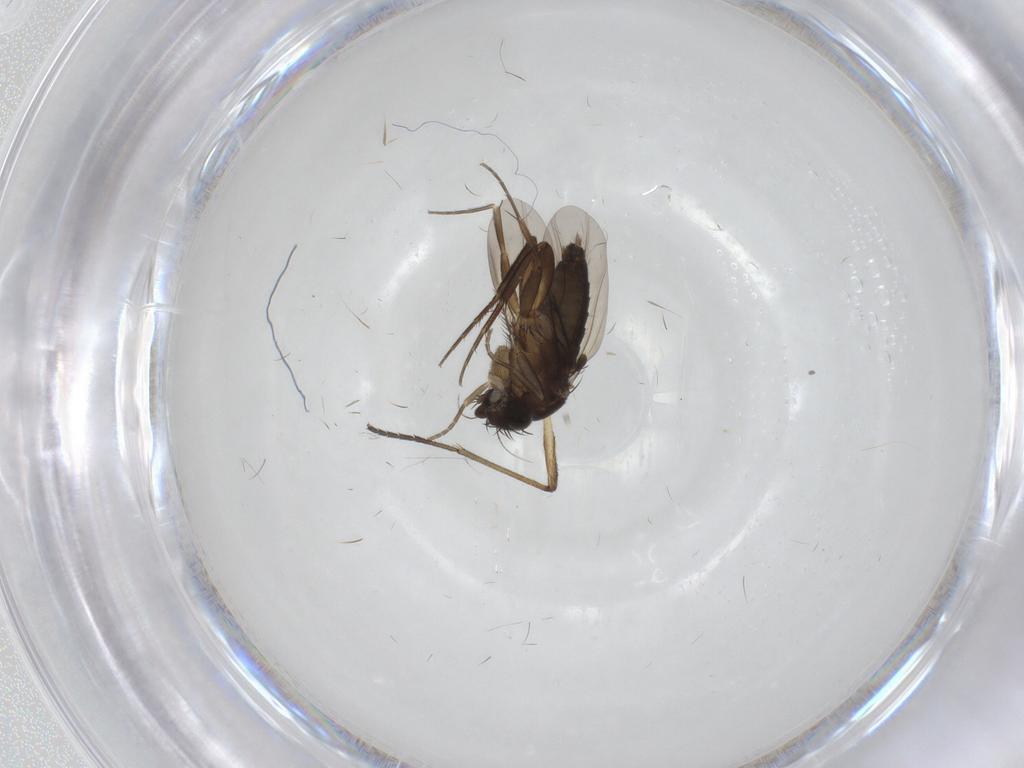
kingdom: Animalia
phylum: Arthropoda
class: Insecta
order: Diptera
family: Phoridae
